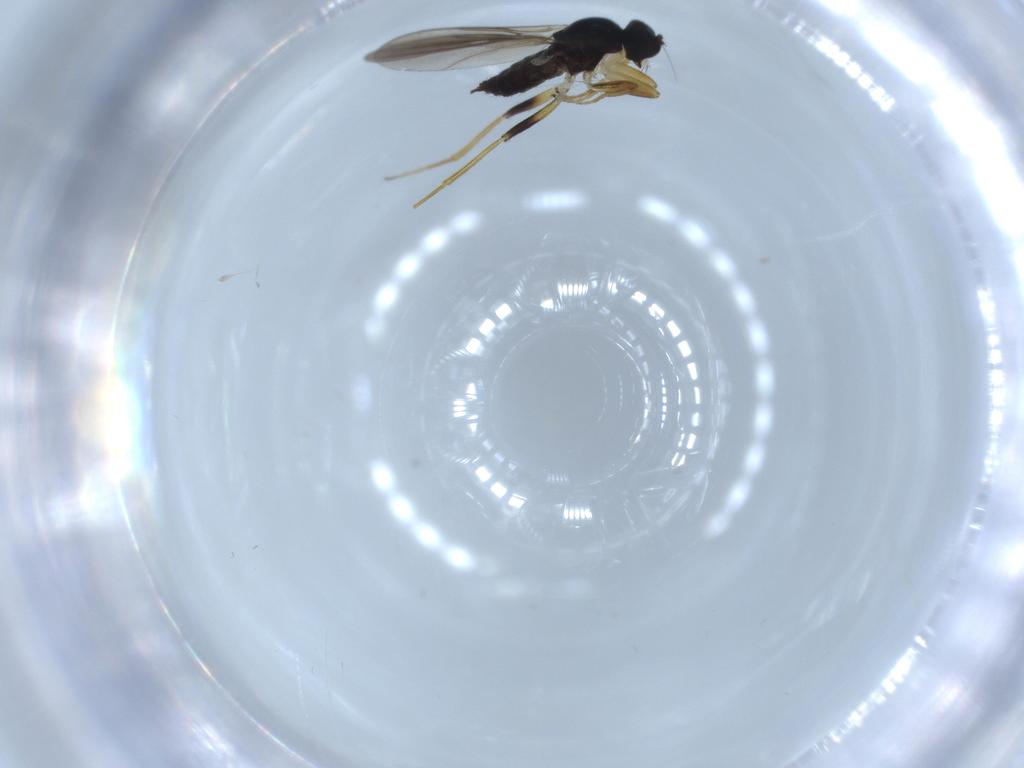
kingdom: Animalia
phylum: Arthropoda
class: Insecta
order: Diptera
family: Hybotidae
